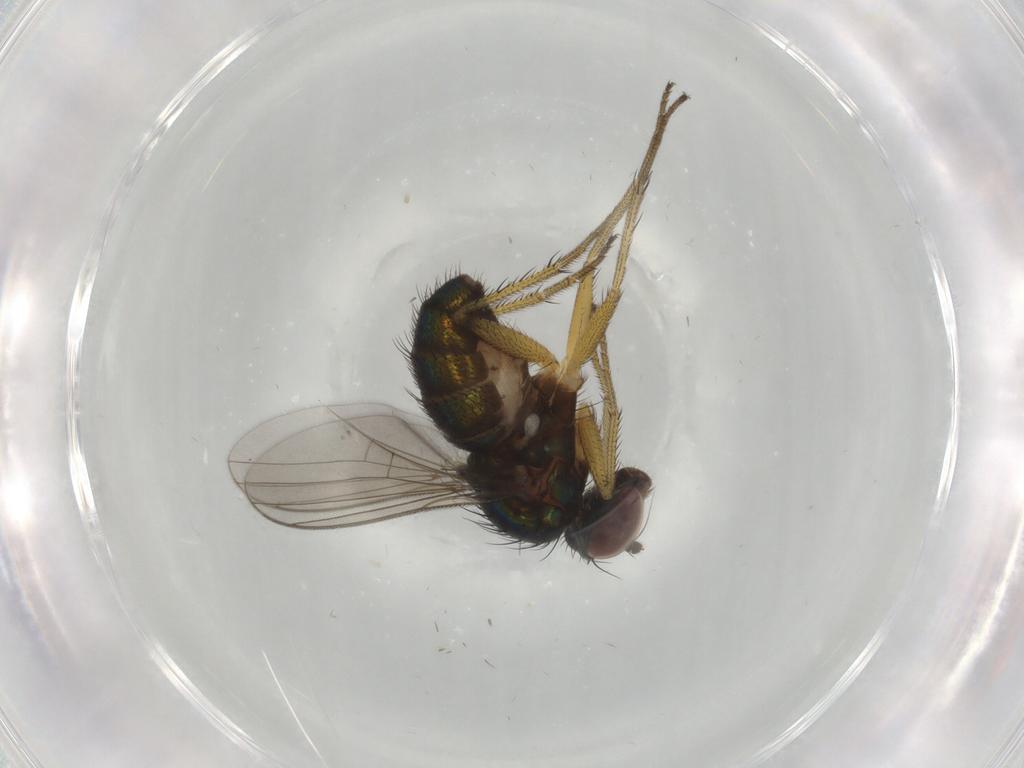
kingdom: Animalia
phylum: Arthropoda
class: Insecta
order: Diptera
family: Dolichopodidae
